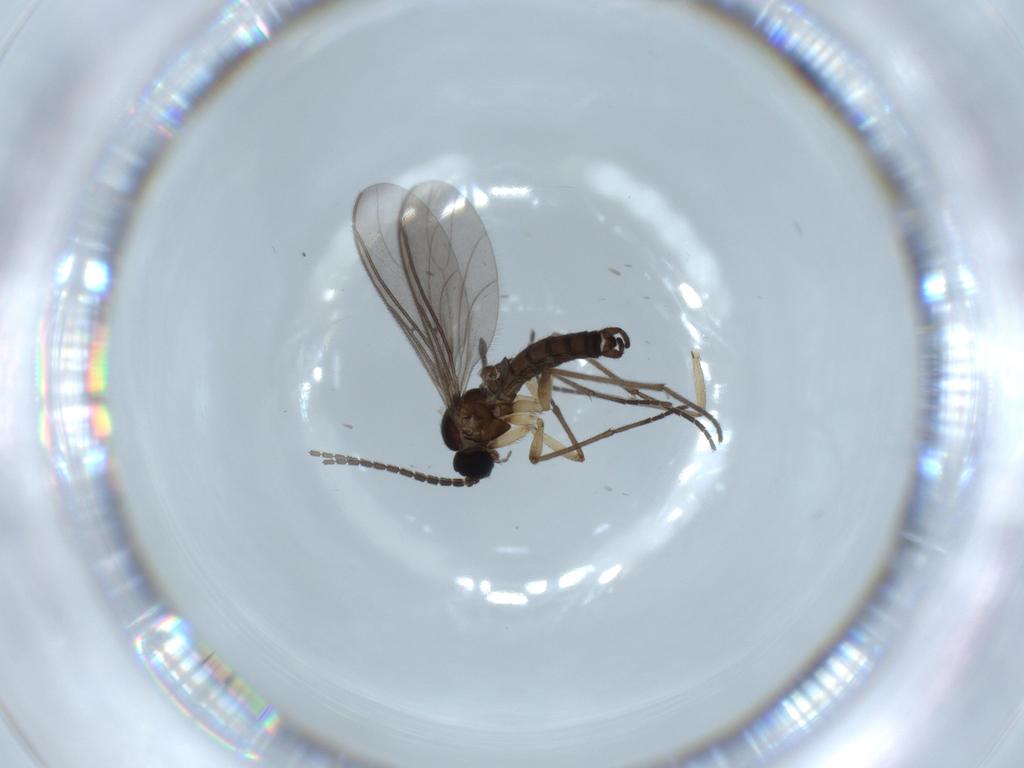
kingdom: Animalia
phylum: Arthropoda
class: Insecta
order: Diptera
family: Sciaridae
